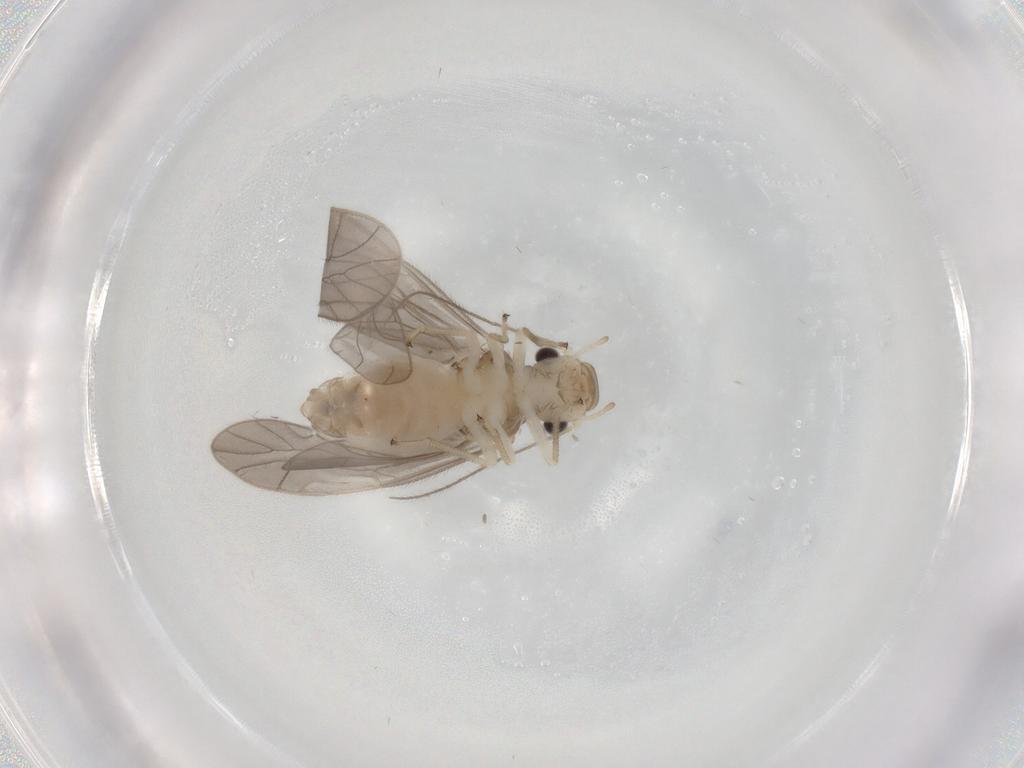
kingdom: Animalia
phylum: Arthropoda
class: Insecta
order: Psocodea
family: Caeciliusidae
